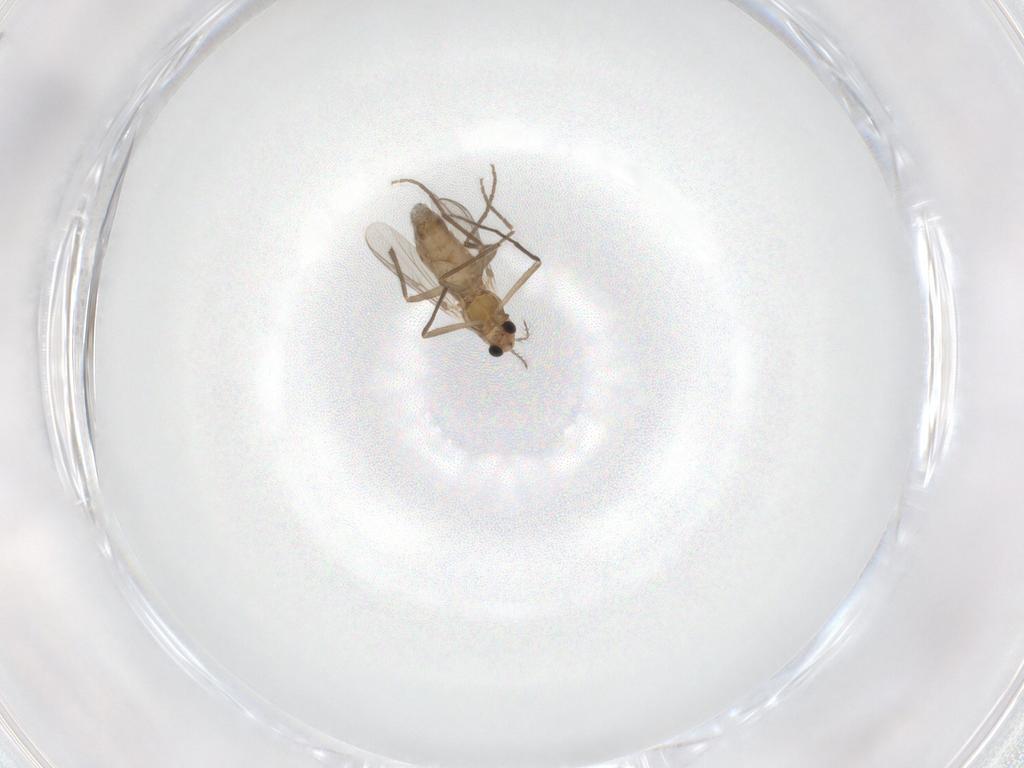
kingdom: Animalia
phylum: Arthropoda
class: Insecta
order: Diptera
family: Chironomidae
